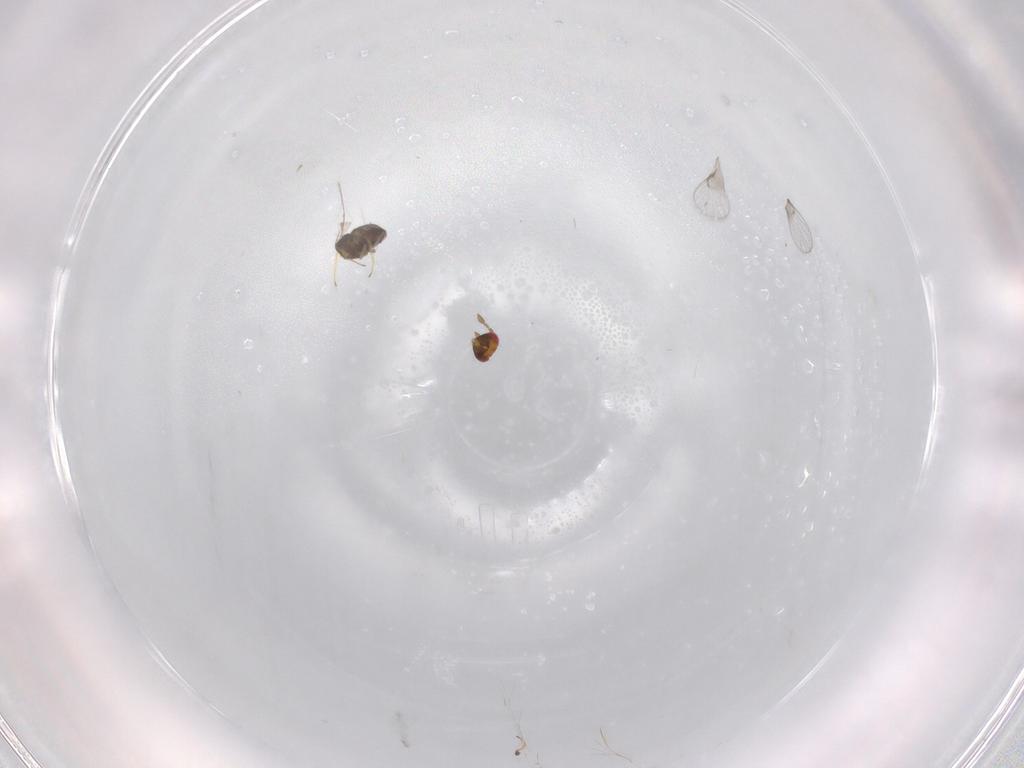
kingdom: Animalia
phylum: Arthropoda
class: Insecta
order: Hymenoptera
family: Trichogrammatidae
